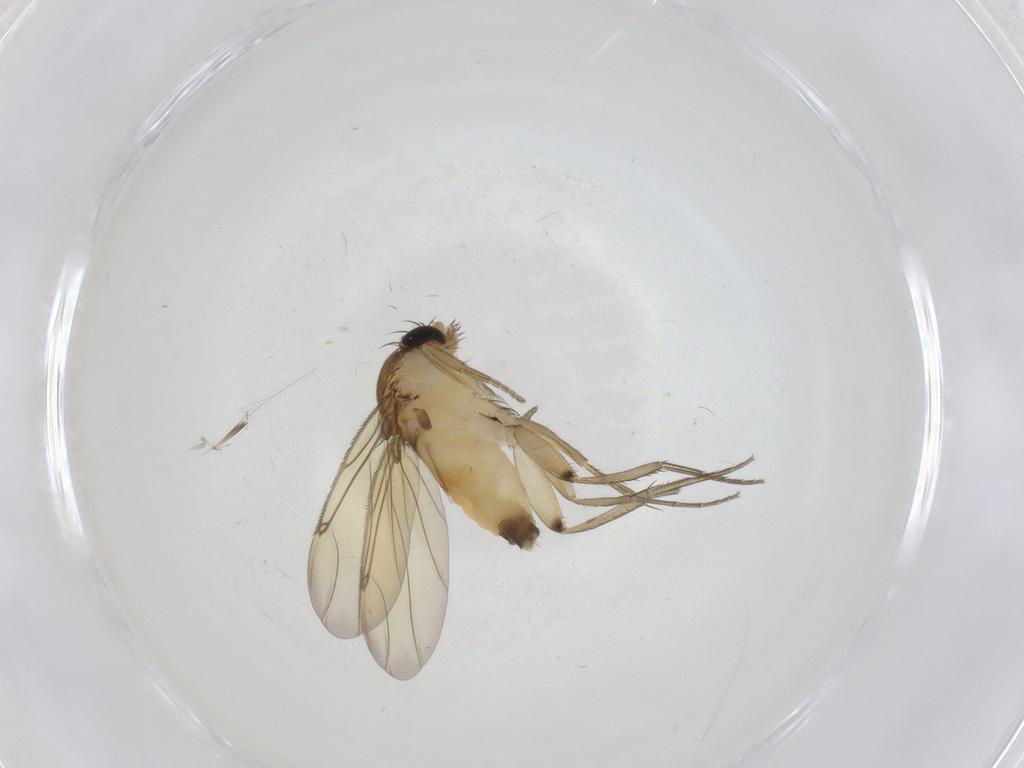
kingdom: Animalia
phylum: Arthropoda
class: Insecta
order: Diptera
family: Phoridae
